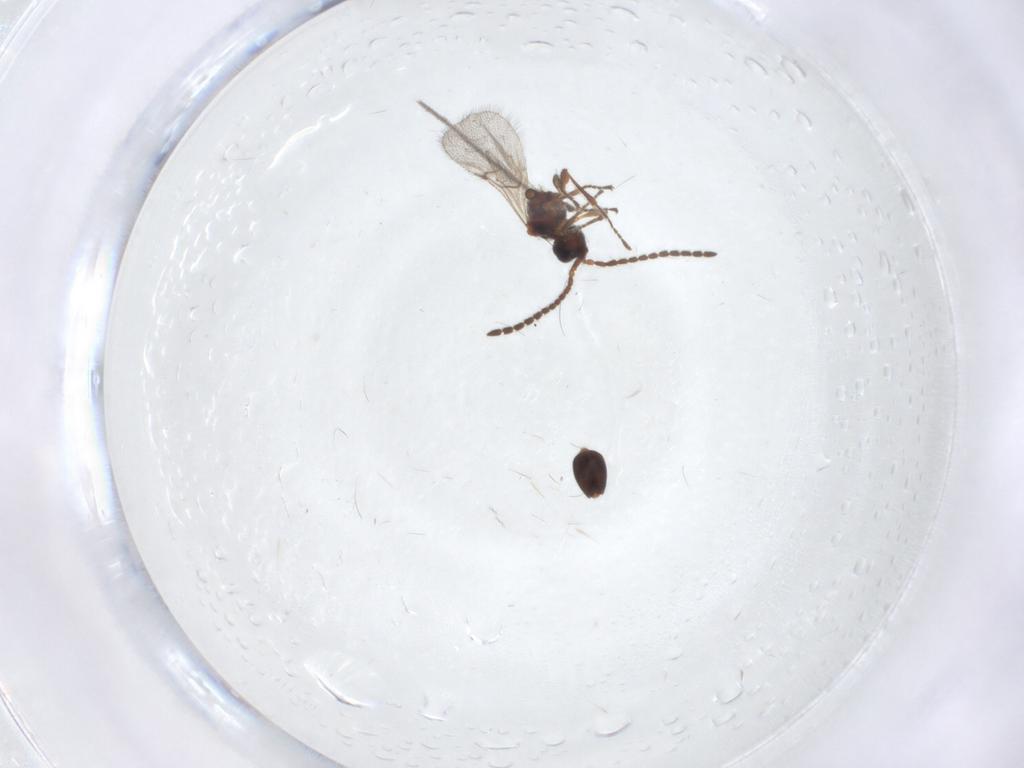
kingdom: Animalia
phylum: Arthropoda
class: Insecta
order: Hymenoptera
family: Diapriidae
